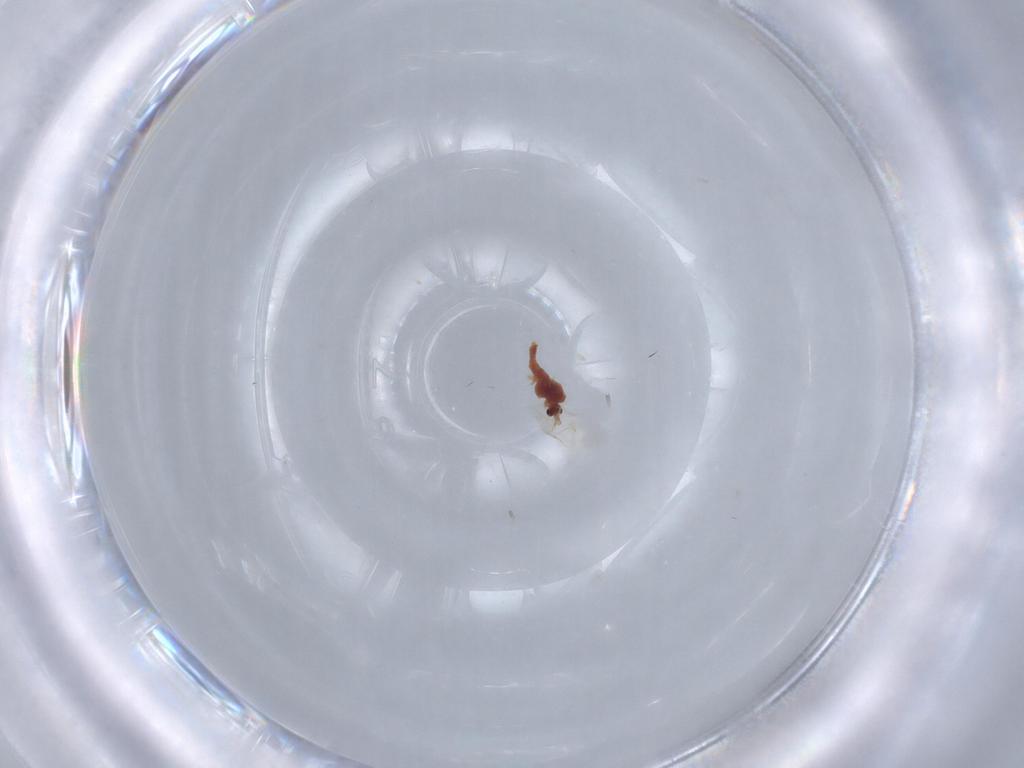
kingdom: Animalia
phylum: Arthropoda
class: Insecta
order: Diptera
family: Ephydridae
